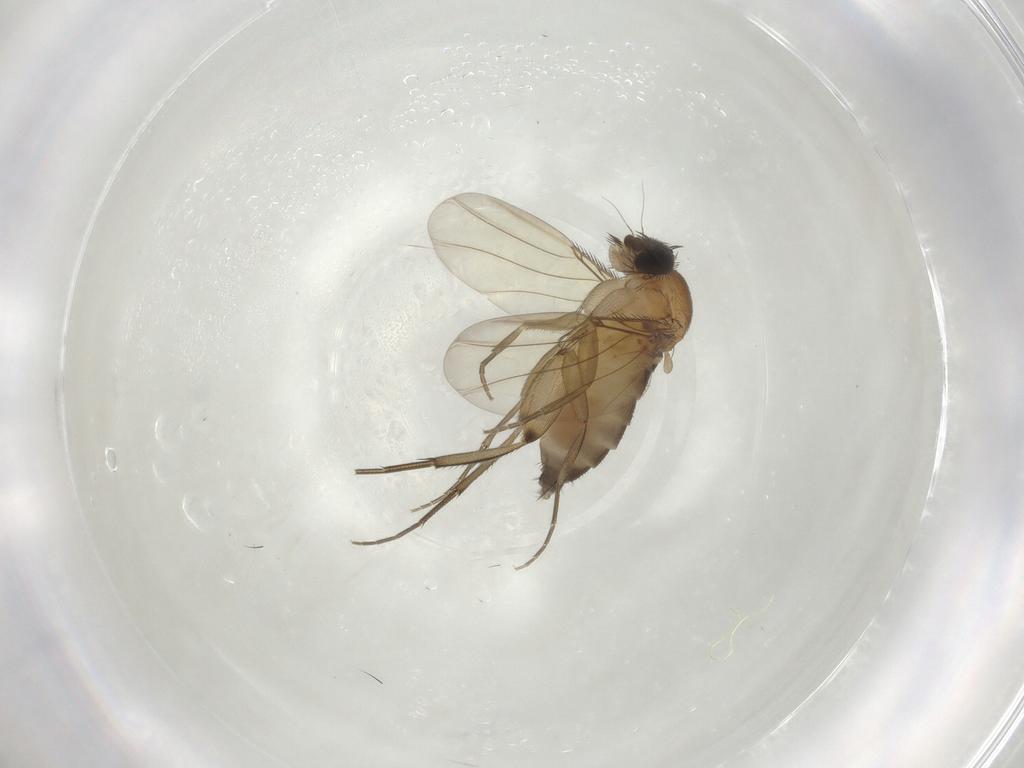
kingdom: Animalia
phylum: Arthropoda
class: Insecta
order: Diptera
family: Phoridae
